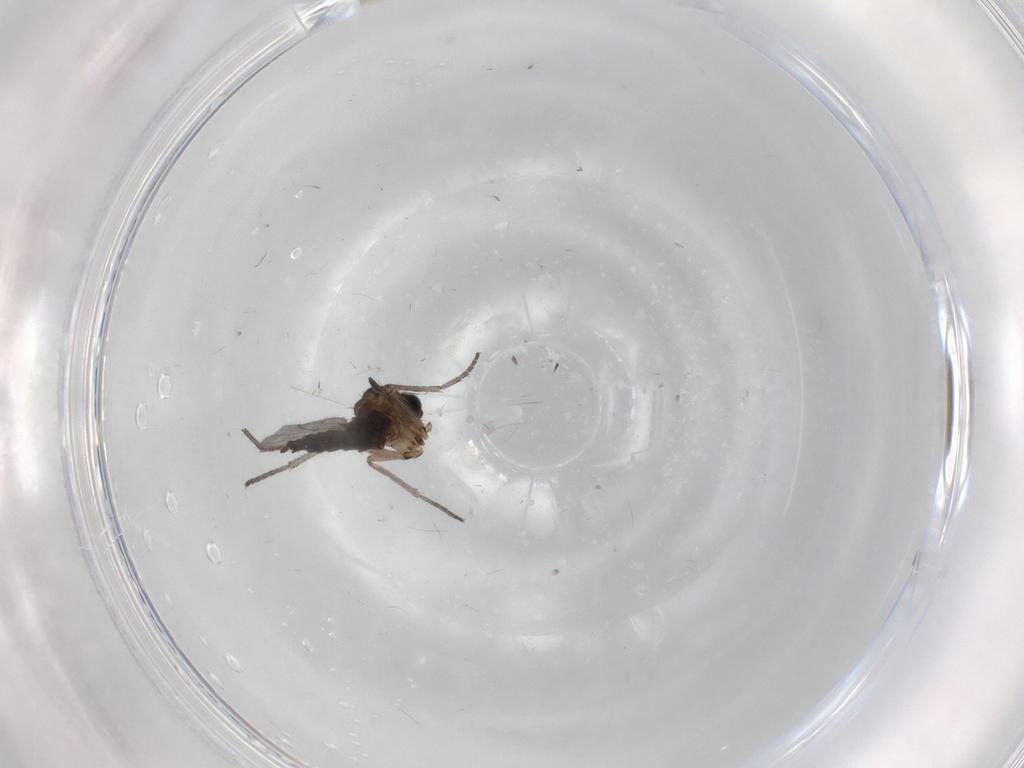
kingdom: Animalia
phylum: Arthropoda
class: Insecta
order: Diptera
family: Sciaridae
